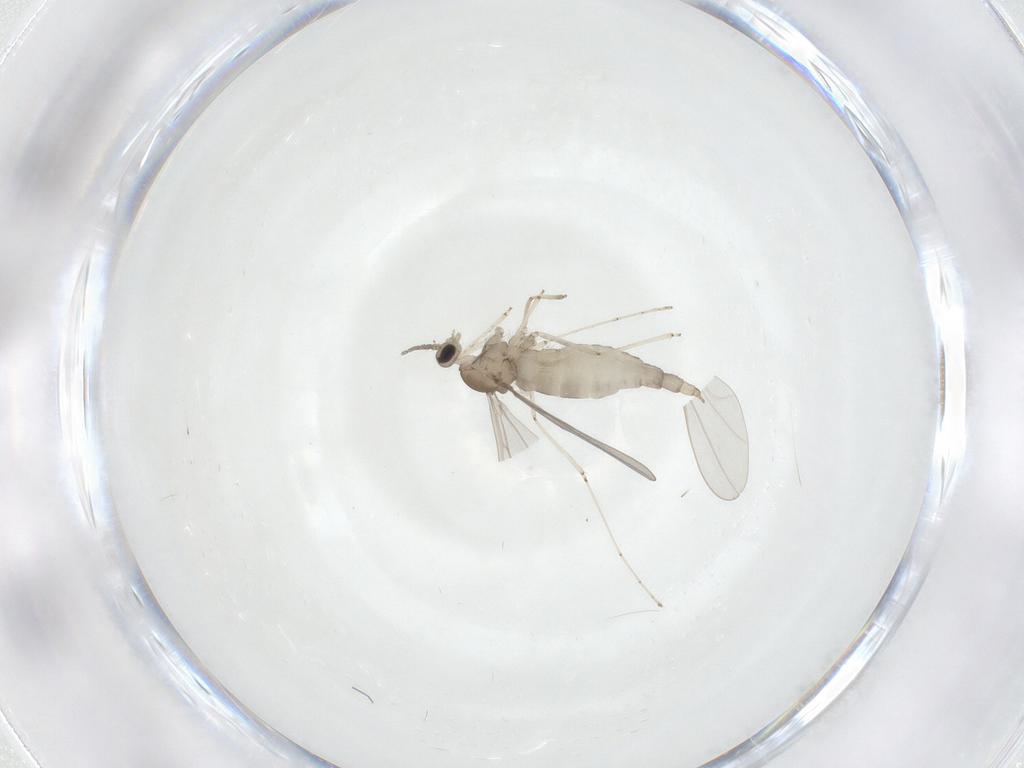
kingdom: Animalia
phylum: Arthropoda
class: Insecta
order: Diptera
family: Cecidomyiidae
